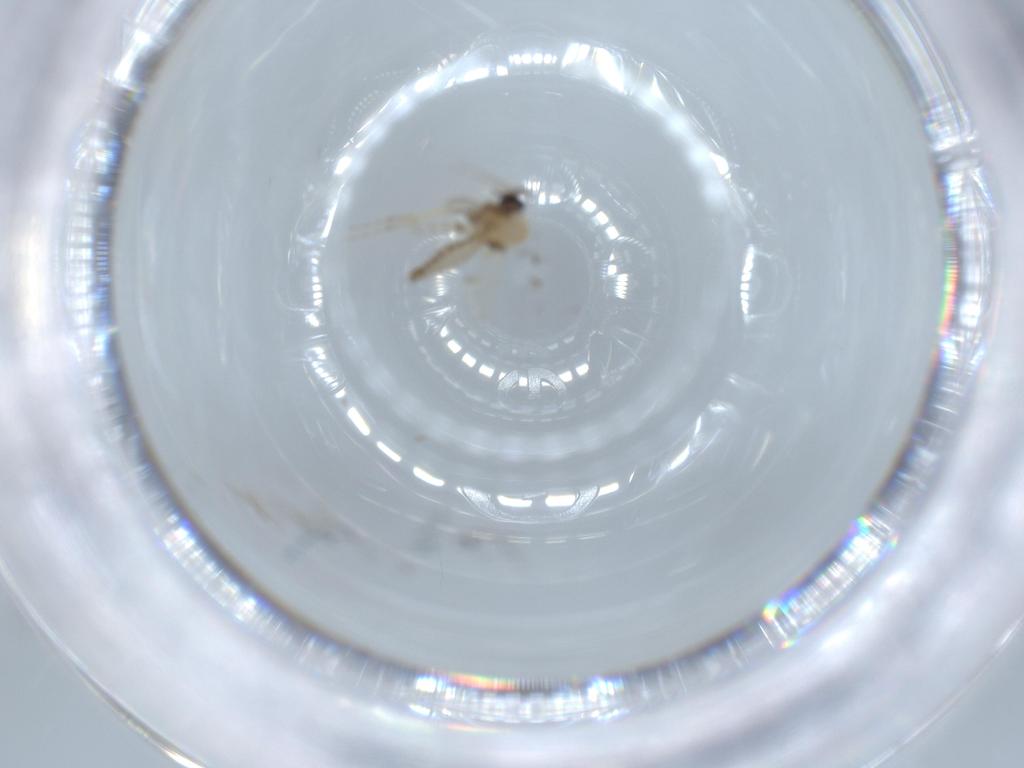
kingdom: Animalia
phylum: Arthropoda
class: Insecta
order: Diptera
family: Ceratopogonidae
